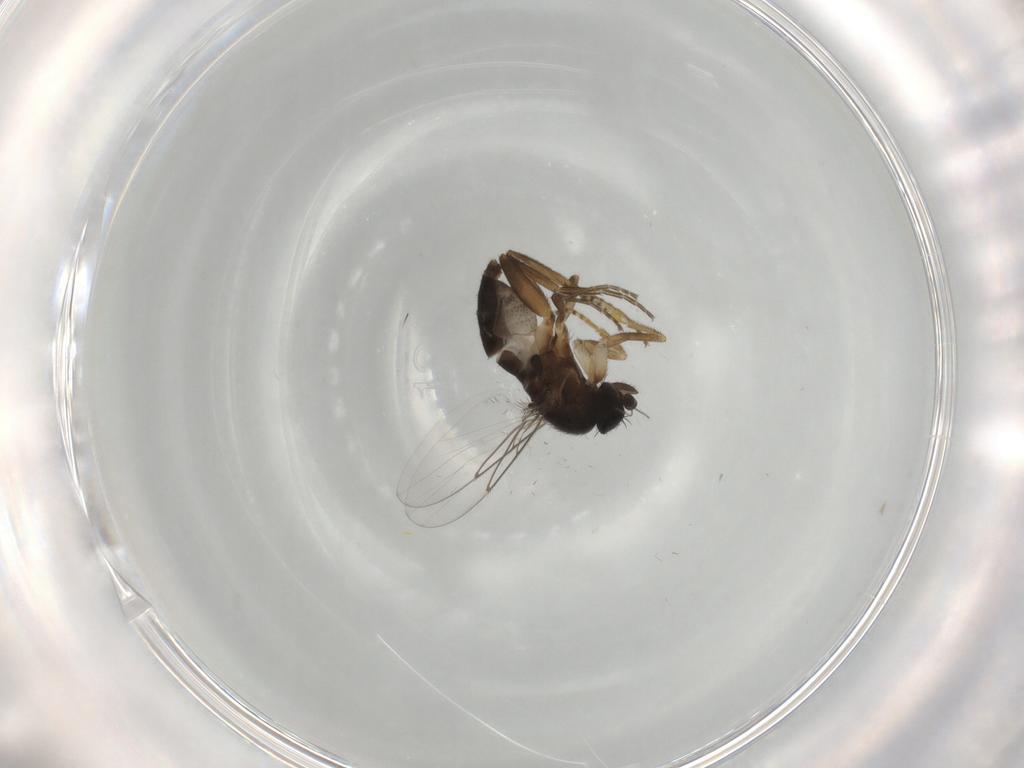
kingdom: Animalia
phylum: Arthropoda
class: Insecta
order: Diptera
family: Phoridae
